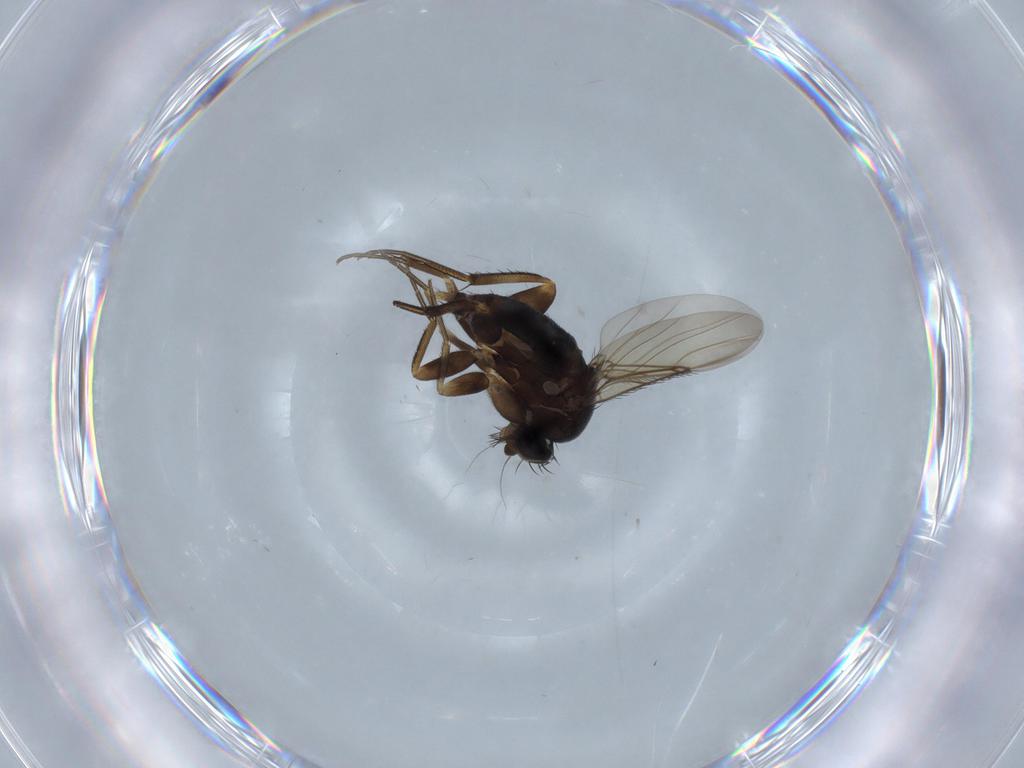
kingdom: Animalia
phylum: Arthropoda
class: Insecta
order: Diptera
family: Phoridae
